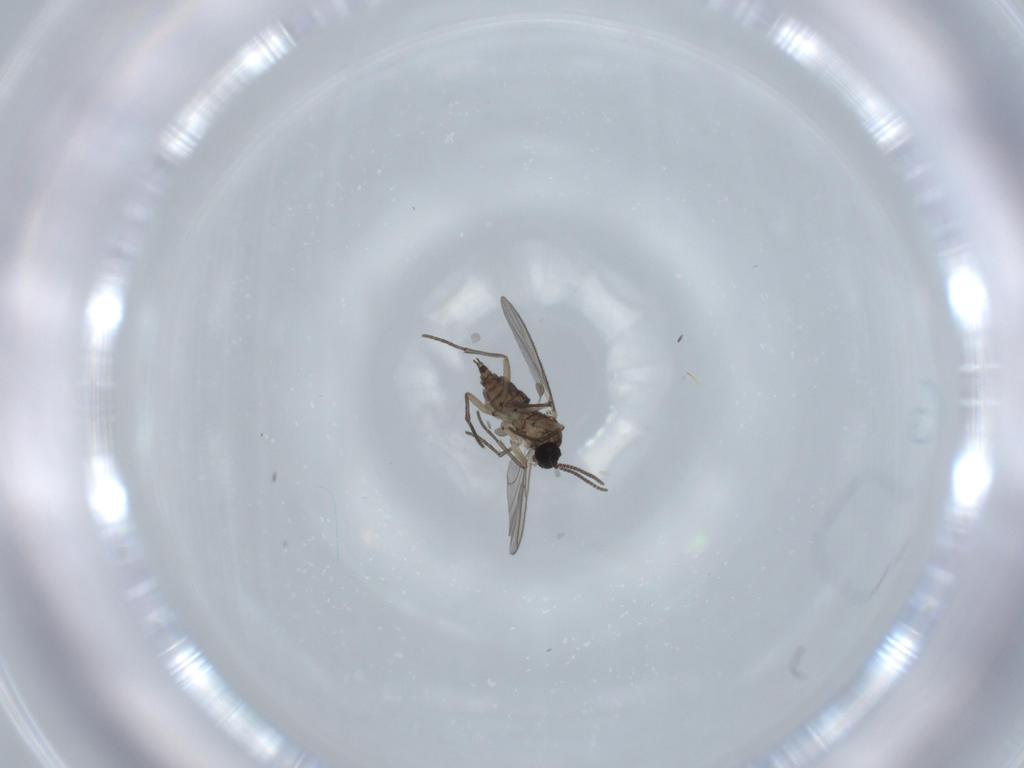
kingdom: Animalia
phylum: Arthropoda
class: Insecta
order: Diptera
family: Sciaridae
